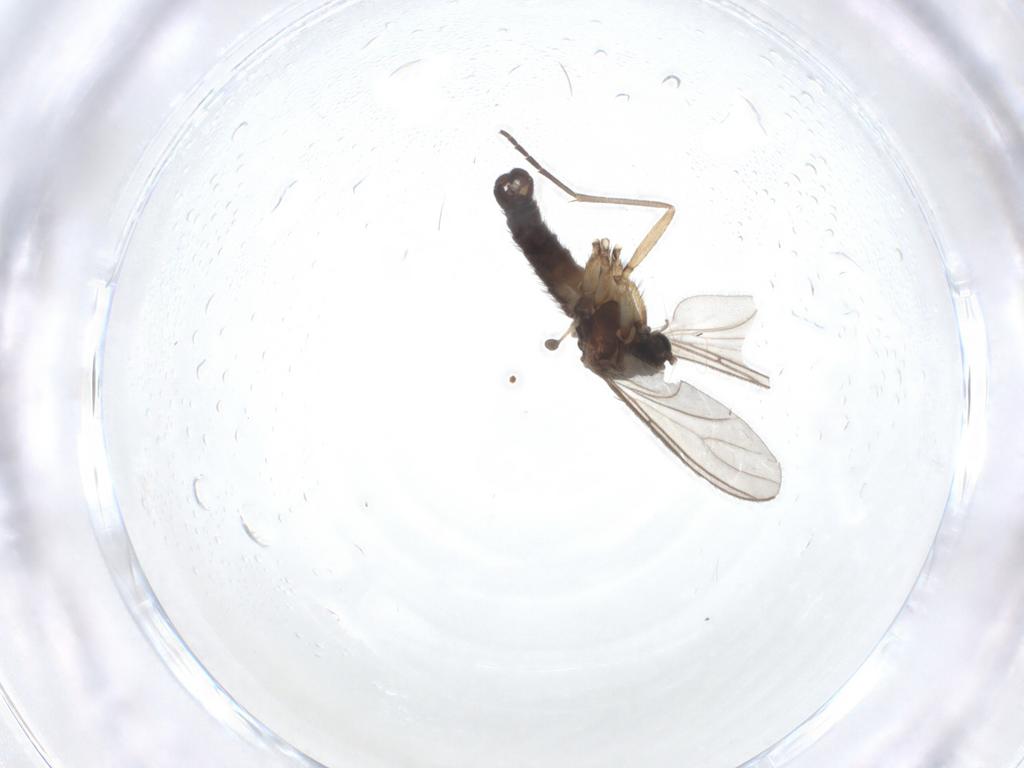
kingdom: Animalia
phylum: Arthropoda
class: Insecta
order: Diptera
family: Sciaridae
